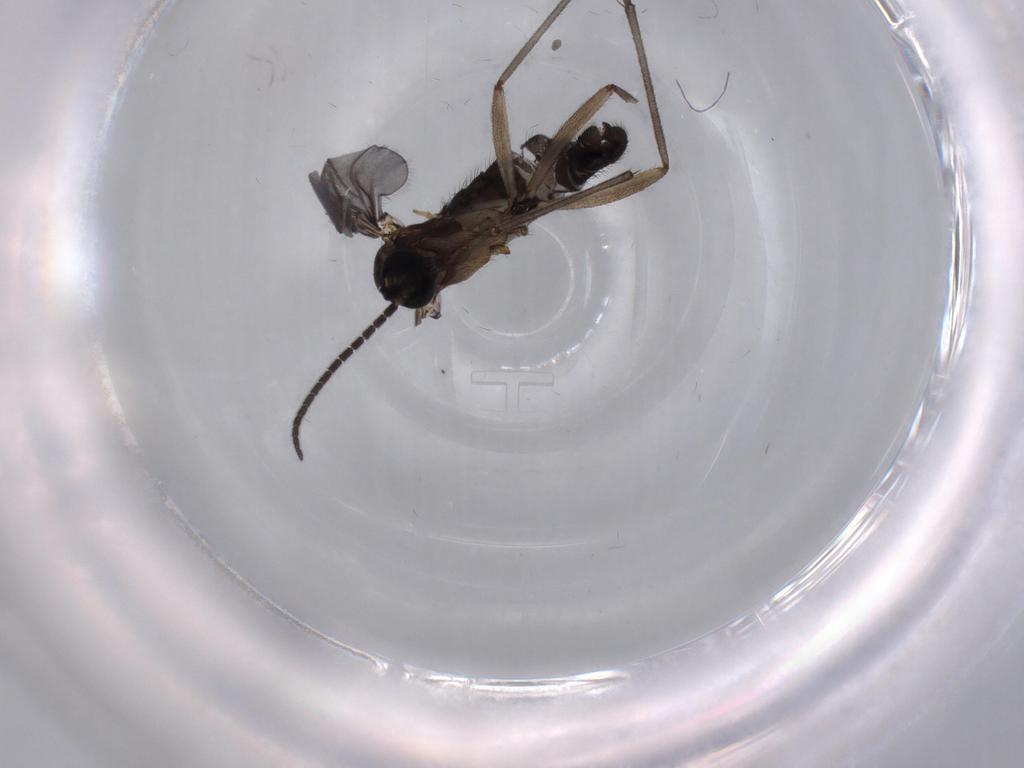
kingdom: Animalia
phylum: Arthropoda
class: Insecta
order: Diptera
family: Sciaridae
